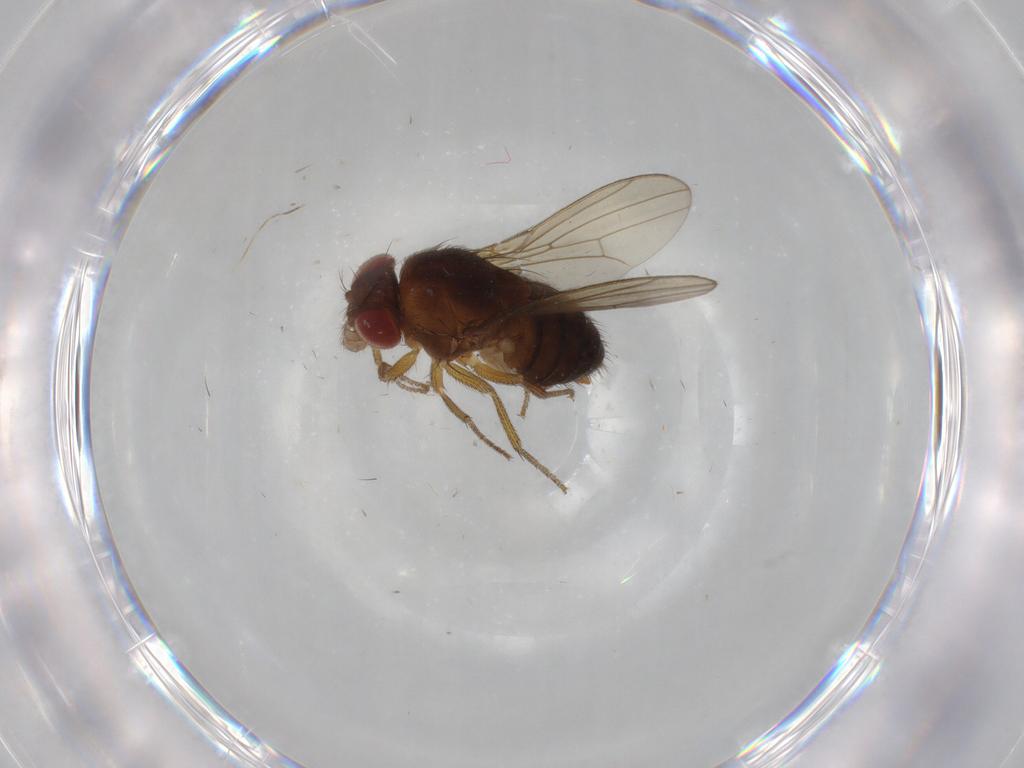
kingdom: Animalia
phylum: Arthropoda
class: Insecta
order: Diptera
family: Drosophilidae
